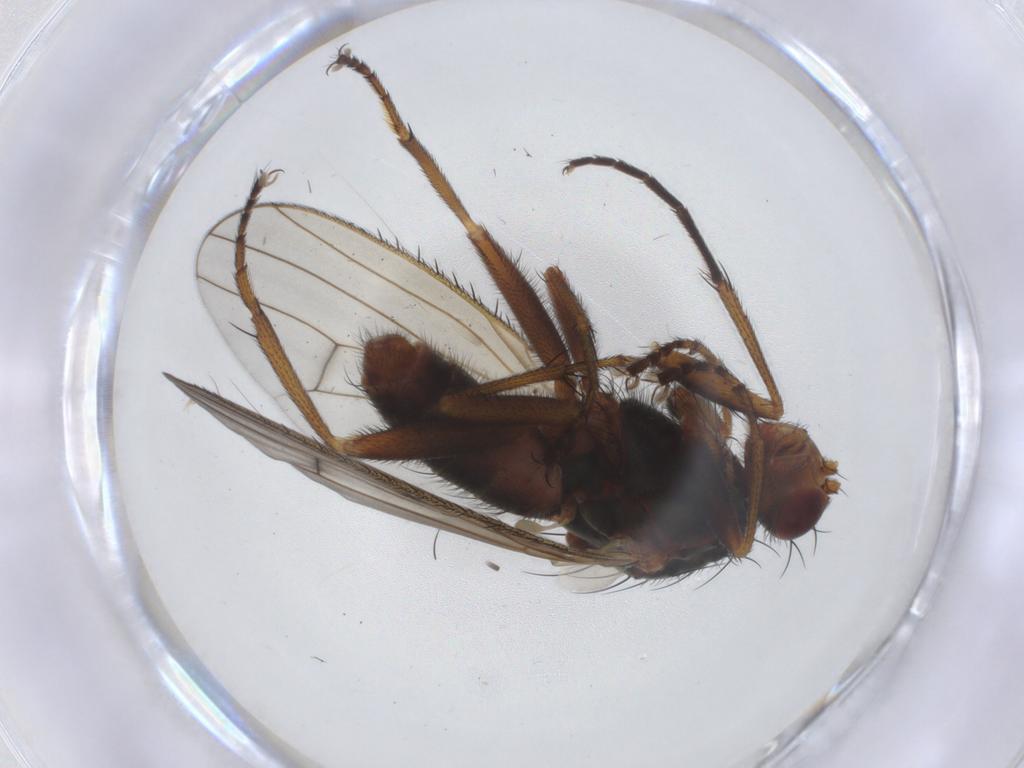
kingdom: Animalia
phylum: Arthropoda
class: Insecta
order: Diptera
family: Heleomyzidae
